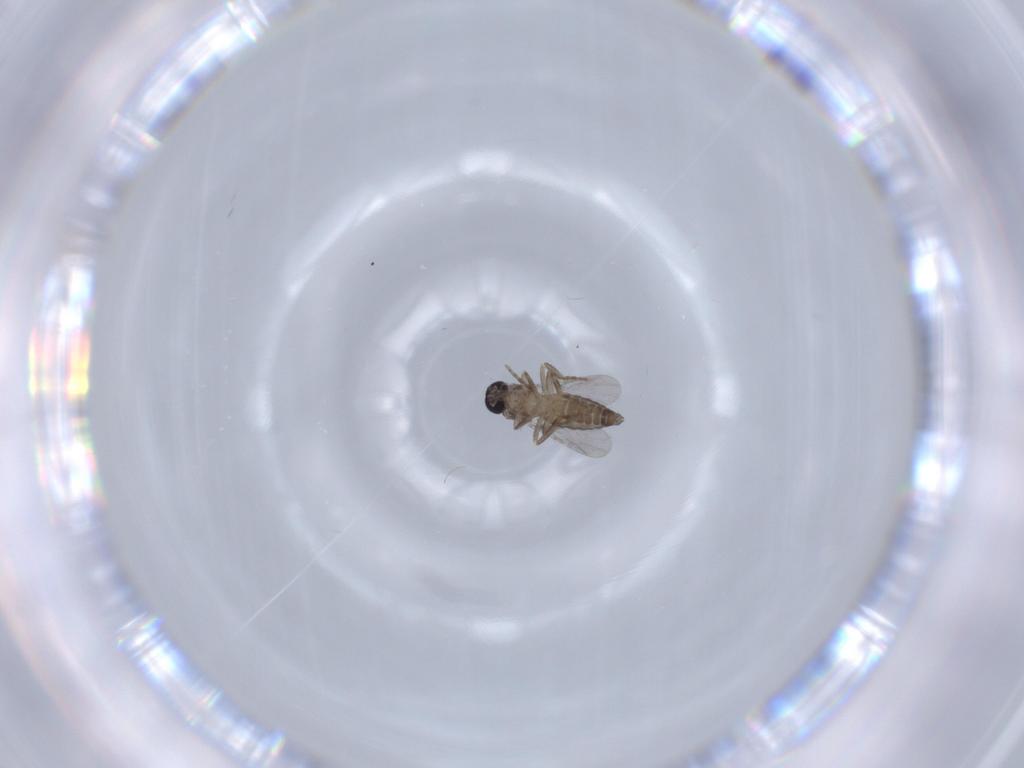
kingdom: Animalia
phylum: Arthropoda
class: Insecta
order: Diptera
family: Ceratopogonidae
